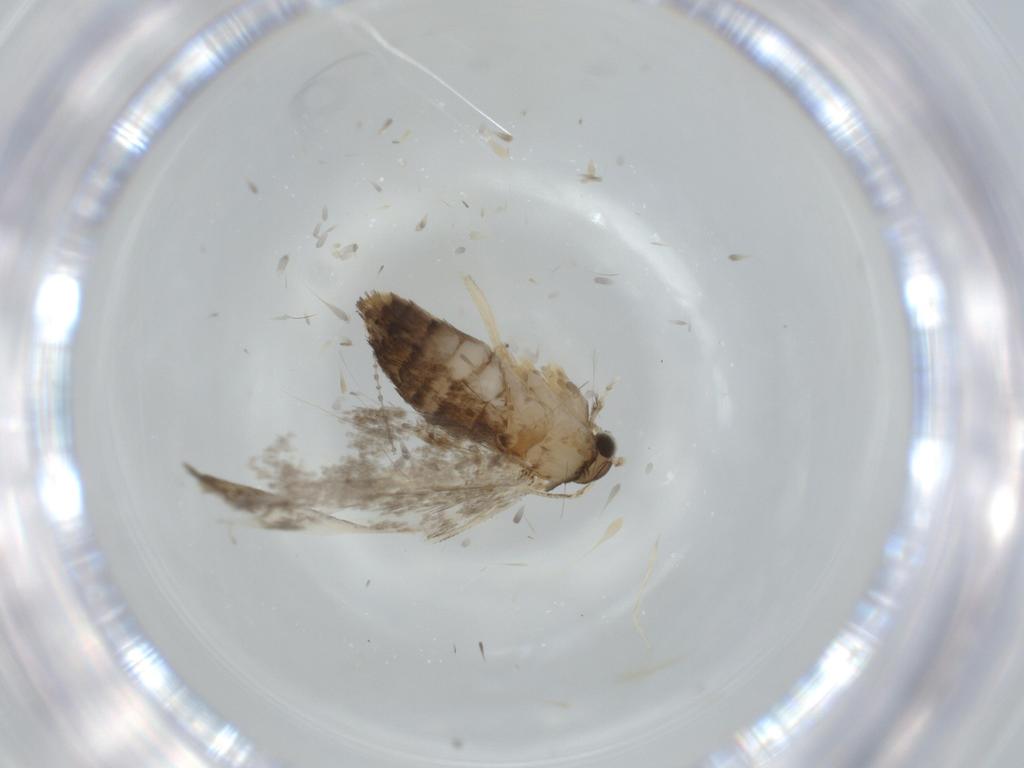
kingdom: Animalia
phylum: Arthropoda
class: Insecta
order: Lepidoptera
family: Tineidae
